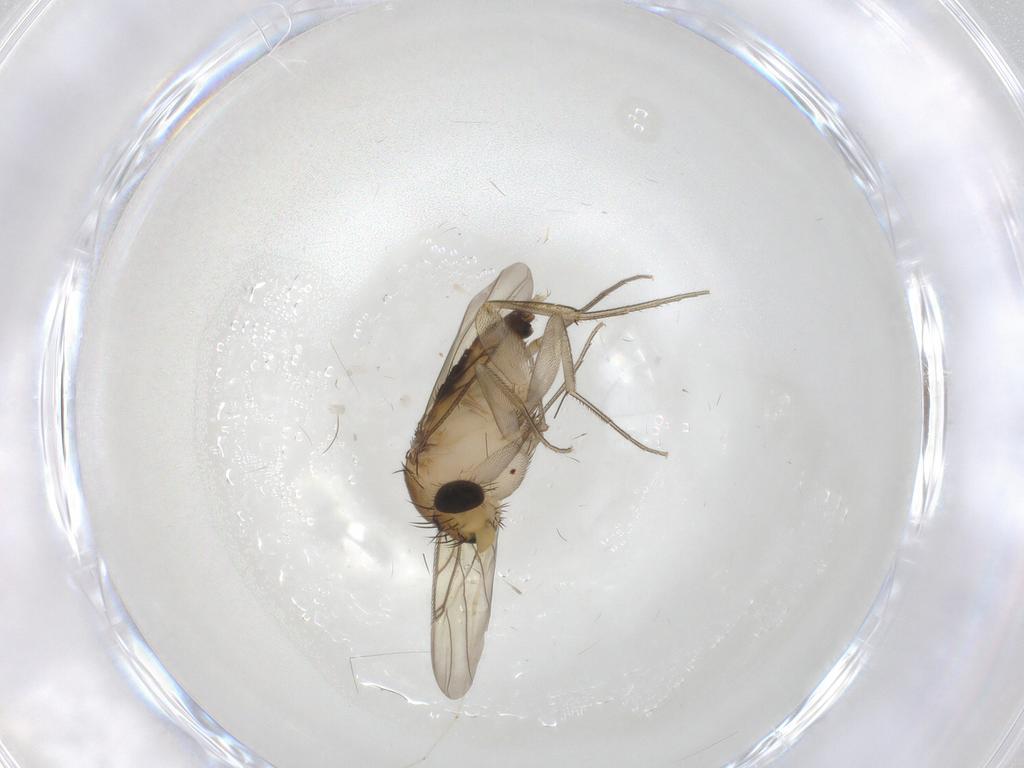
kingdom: Animalia
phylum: Arthropoda
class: Insecta
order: Diptera
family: Phoridae
